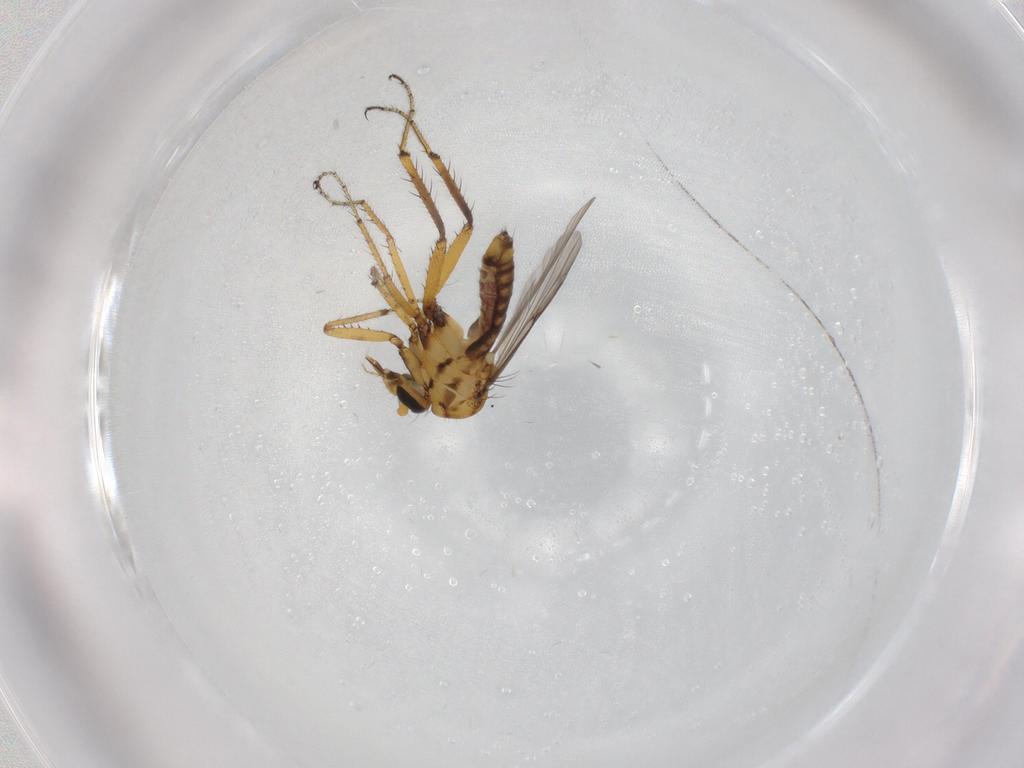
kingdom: Animalia
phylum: Arthropoda
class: Insecta
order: Diptera
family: Ceratopogonidae
